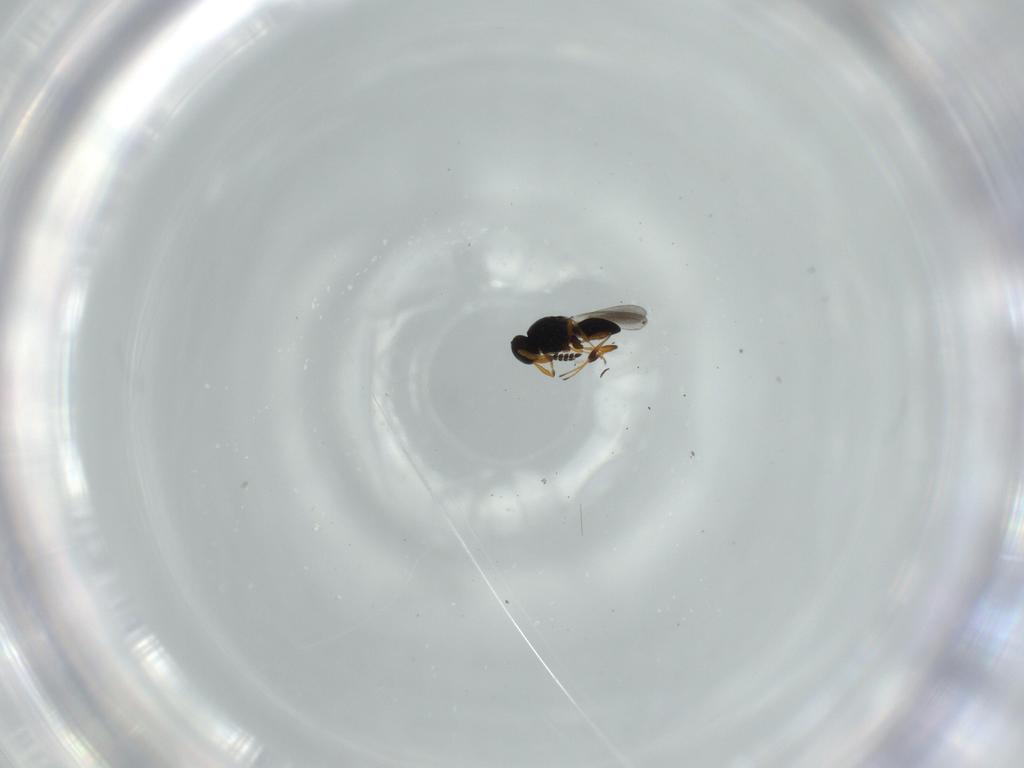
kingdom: Animalia
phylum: Arthropoda
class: Insecta
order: Hymenoptera
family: Platygastridae
